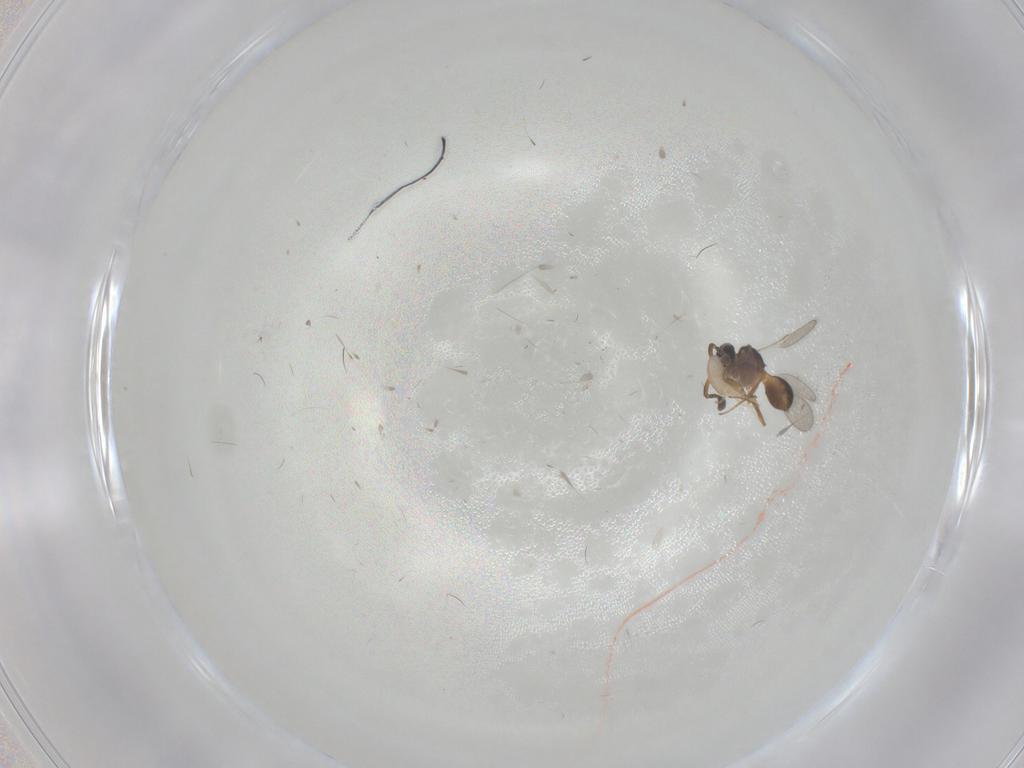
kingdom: Animalia
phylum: Arthropoda
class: Insecta
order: Hymenoptera
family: Scelionidae
